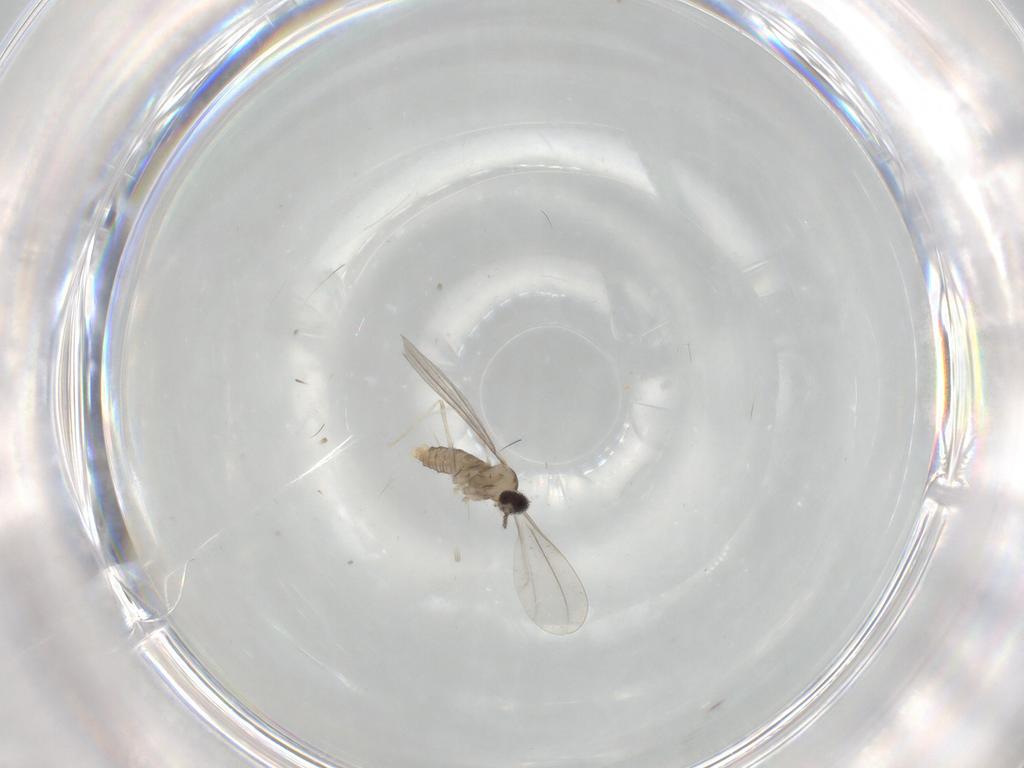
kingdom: Animalia
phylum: Arthropoda
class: Insecta
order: Diptera
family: Cecidomyiidae
